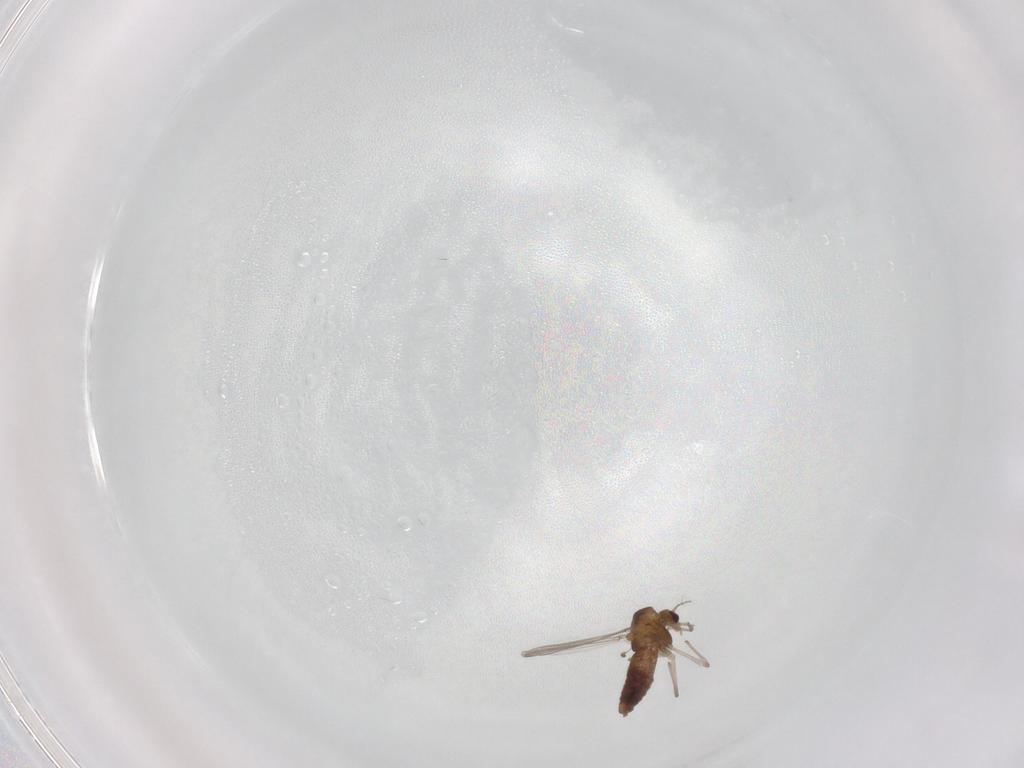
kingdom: Animalia
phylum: Arthropoda
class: Insecta
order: Diptera
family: Chironomidae
